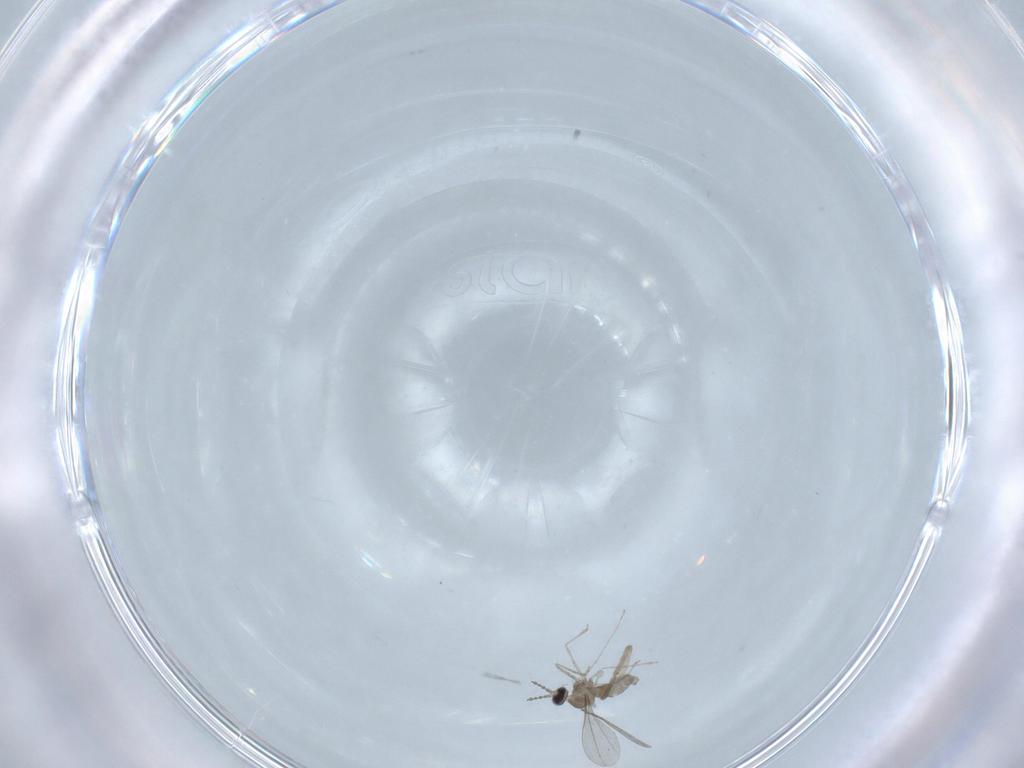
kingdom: Animalia
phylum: Arthropoda
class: Insecta
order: Diptera
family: Psychodidae
